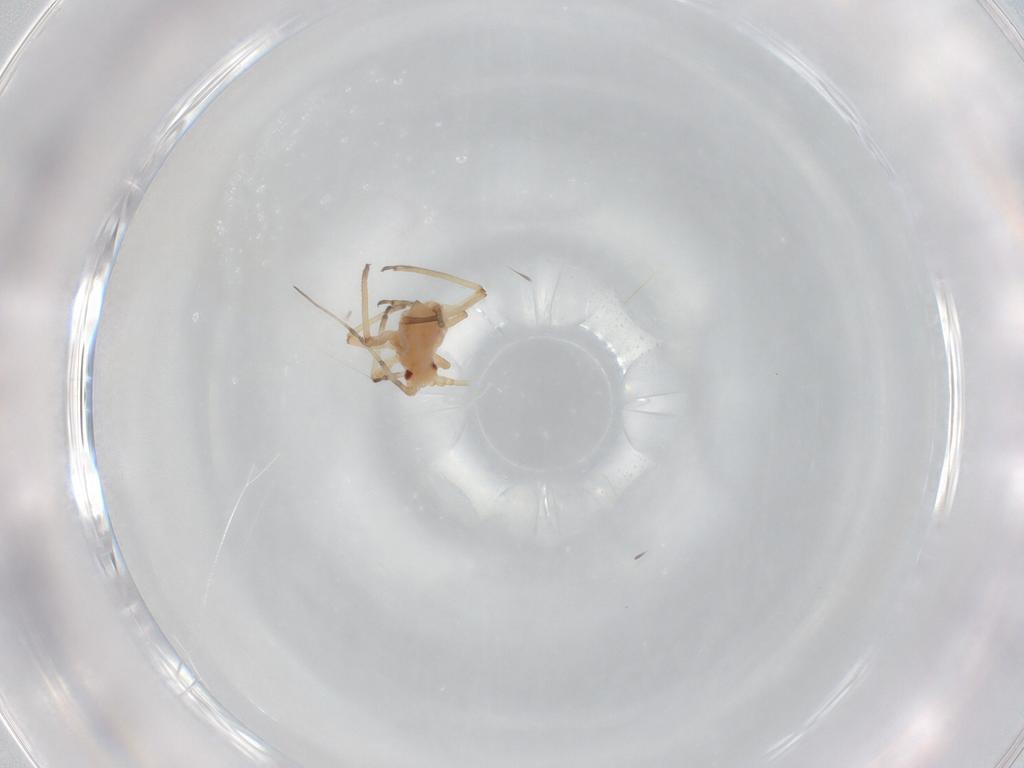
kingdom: Animalia
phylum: Arthropoda
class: Insecta
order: Hemiptera
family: Aphididae
